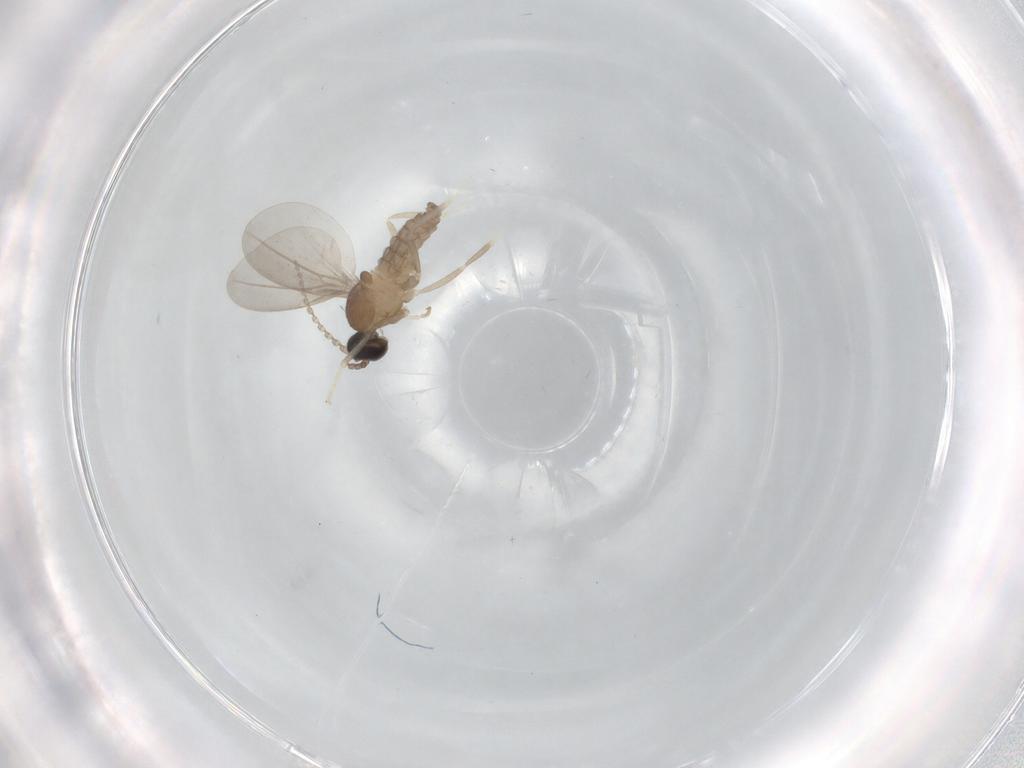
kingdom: Animalia
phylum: Arthropoda
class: Insecta
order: Diptera
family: Cecidomyiidae
